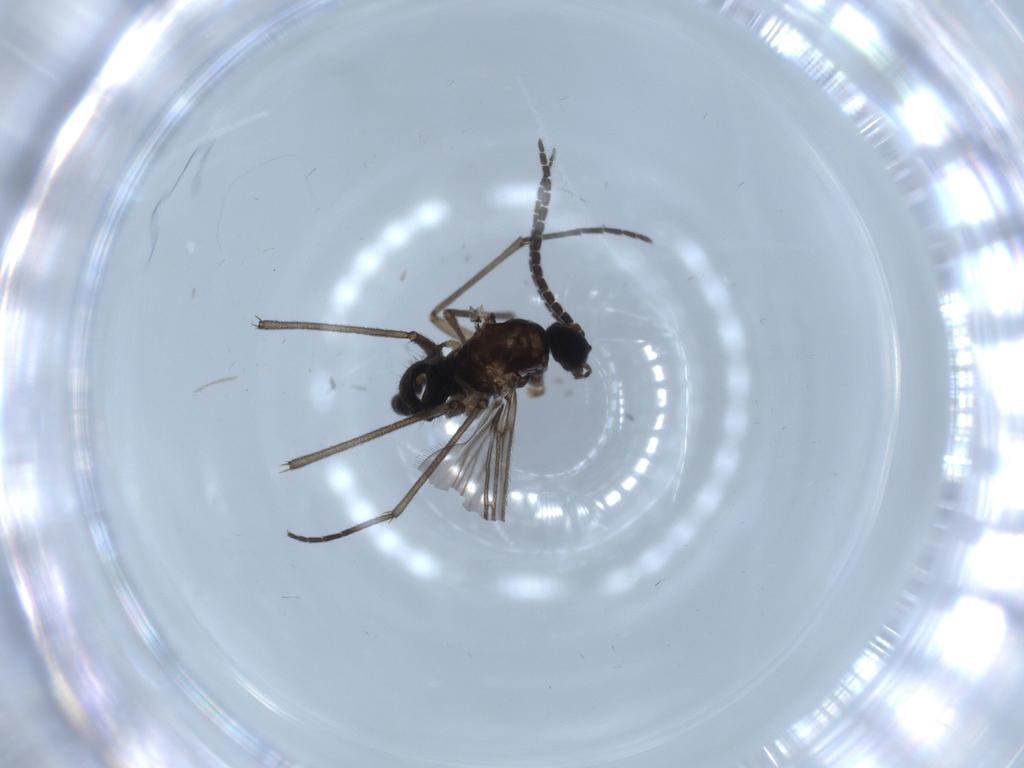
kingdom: Animalia
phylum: Arthropoda
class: Insecta
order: Diptera
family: Sciaridae
